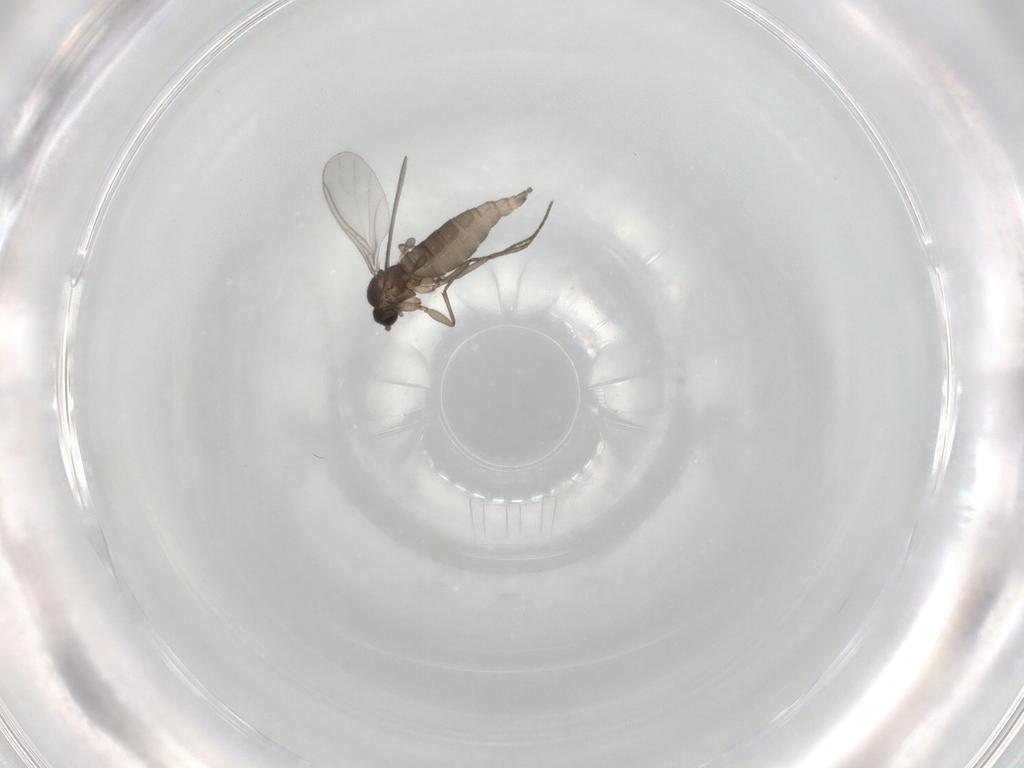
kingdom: Animalia
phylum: Arthropoda
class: Insecta
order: Diptera
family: Sciaridae
